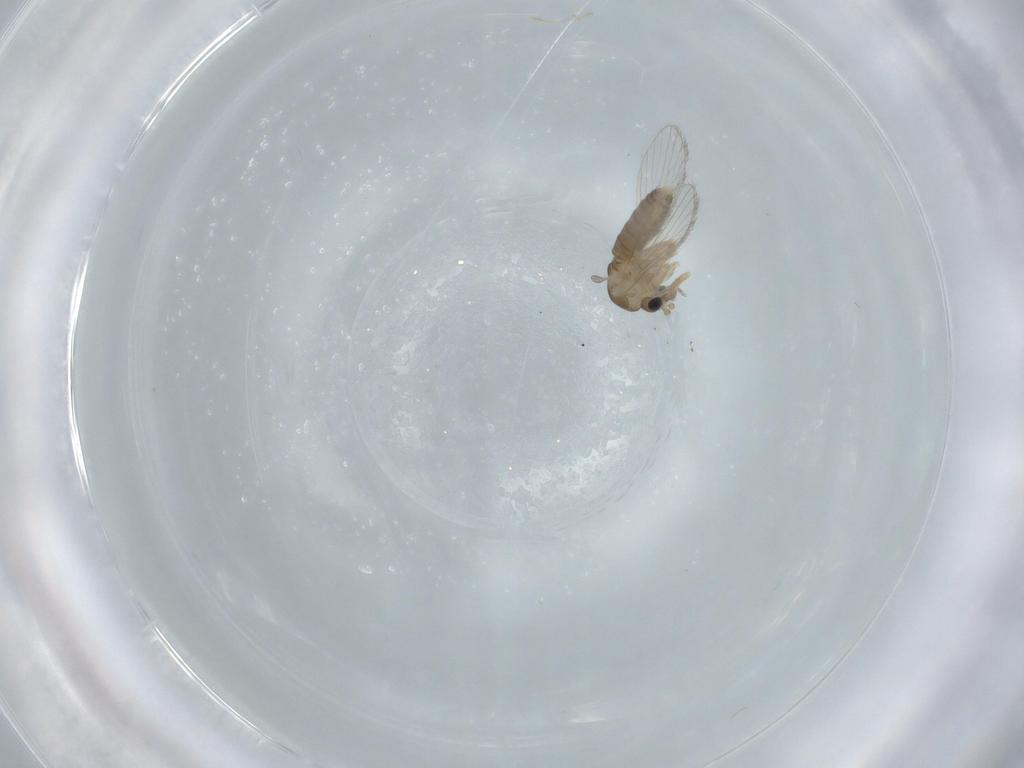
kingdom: Animalia
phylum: Arthropoda
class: Insecta
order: Diptera
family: Psychodidae
